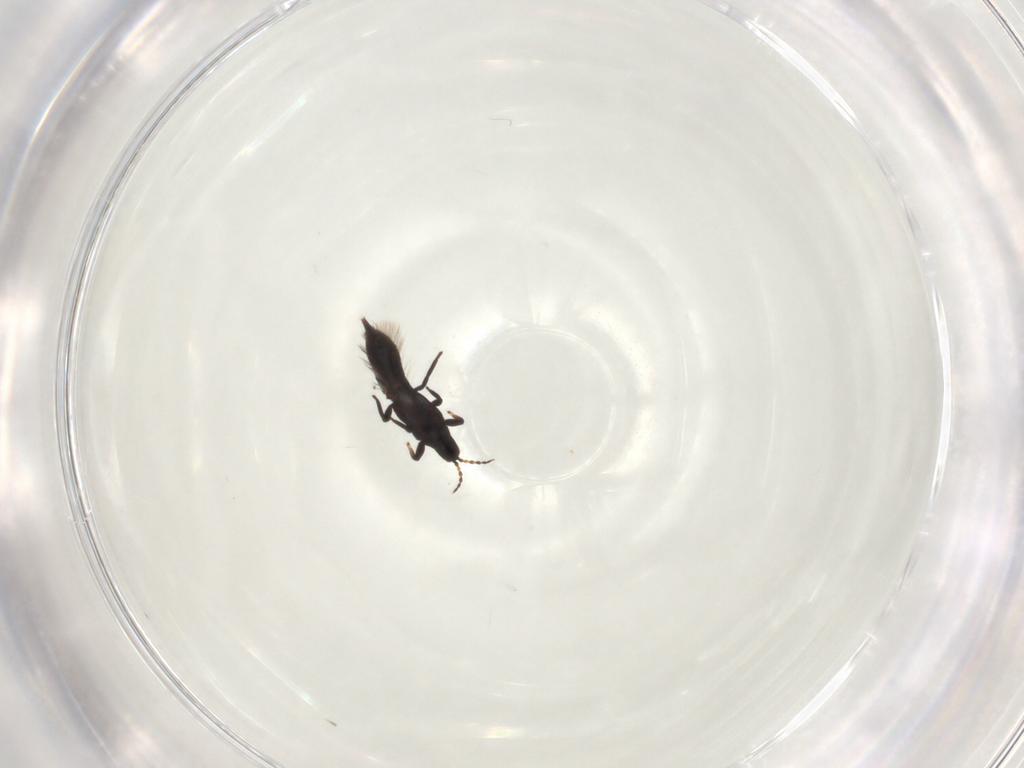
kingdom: Animalia
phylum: Arthropoda
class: Insecta
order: Thysanoptera
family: Phlaeothripidae
